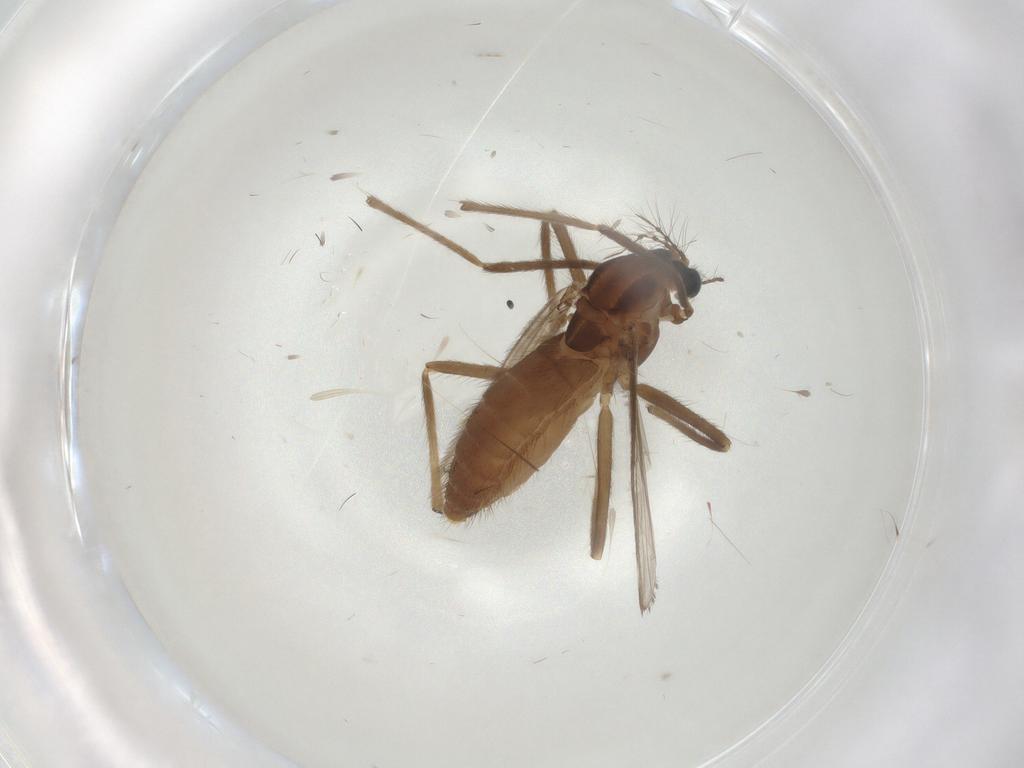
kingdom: Animalia
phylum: Arthropoda
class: Insecta
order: Diptera
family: Chironomidae
